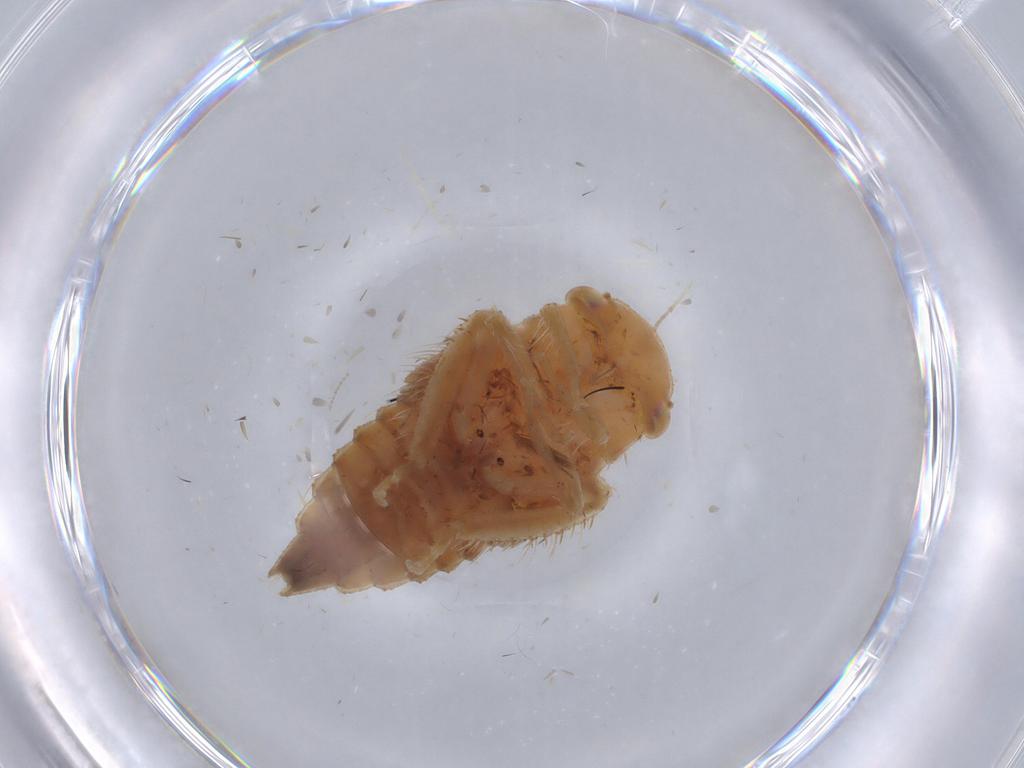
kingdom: Animalia
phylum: Arthropoda
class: Insecta
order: Hemiptera
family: Cicadellidae
